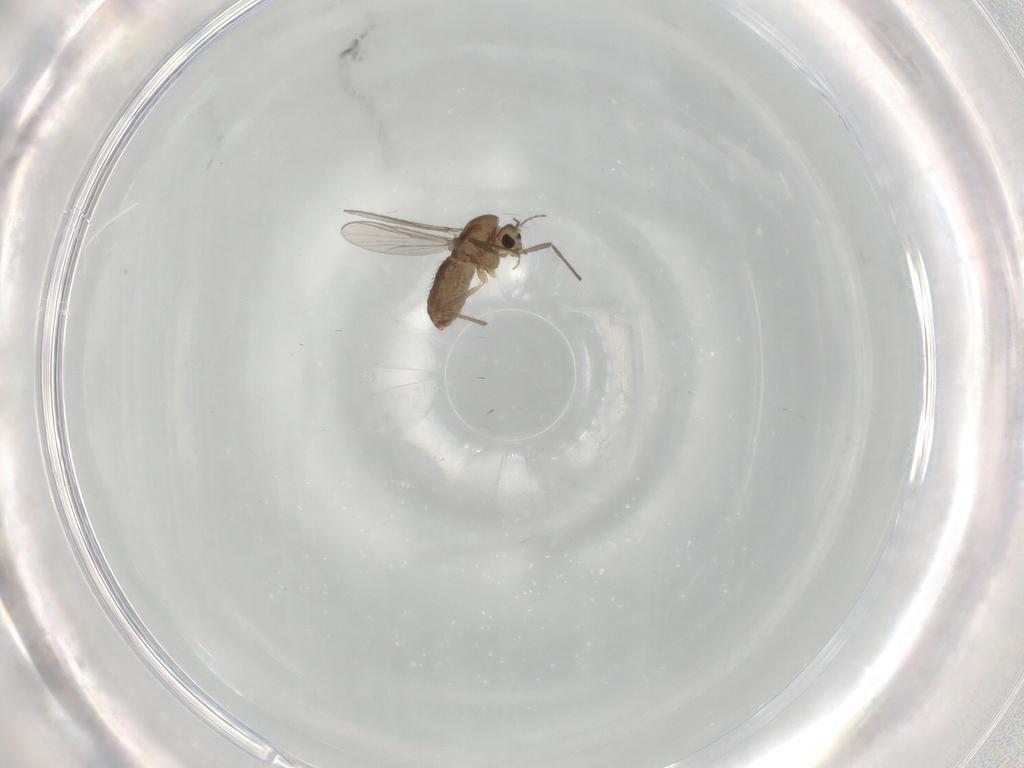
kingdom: Animalia
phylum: Arthropoda
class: Insecta
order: Diptera
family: Chironomidae
